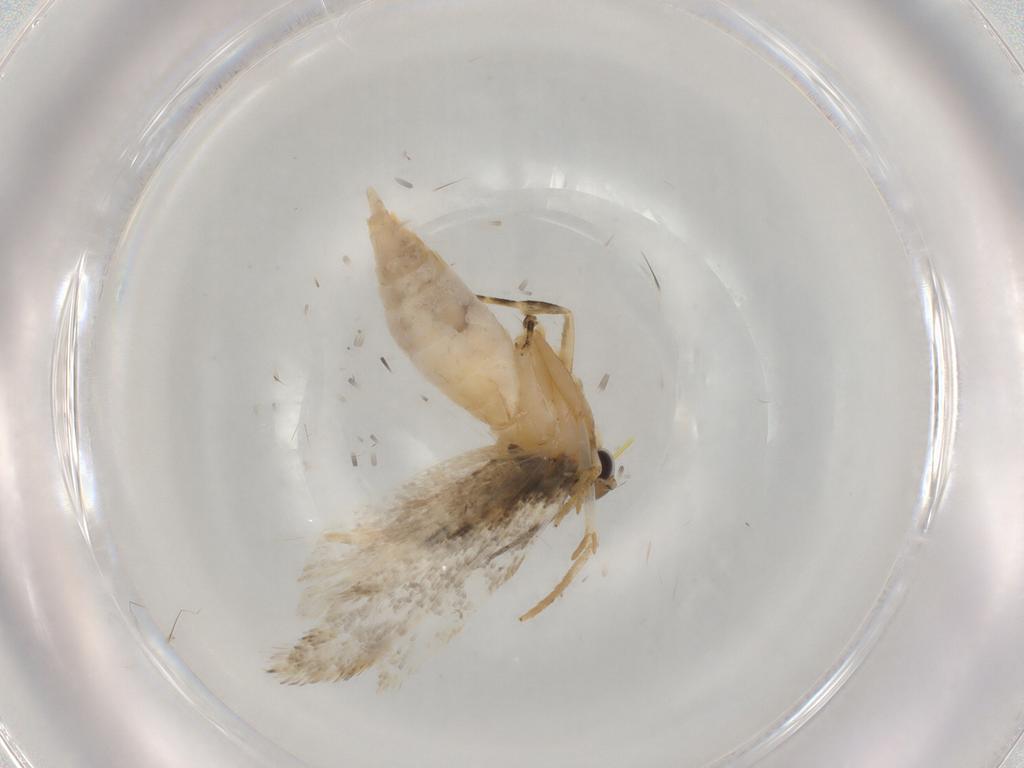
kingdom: Animalia
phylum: Arthropoda
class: Insecta
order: Lepidoptera
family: Autostichidae
